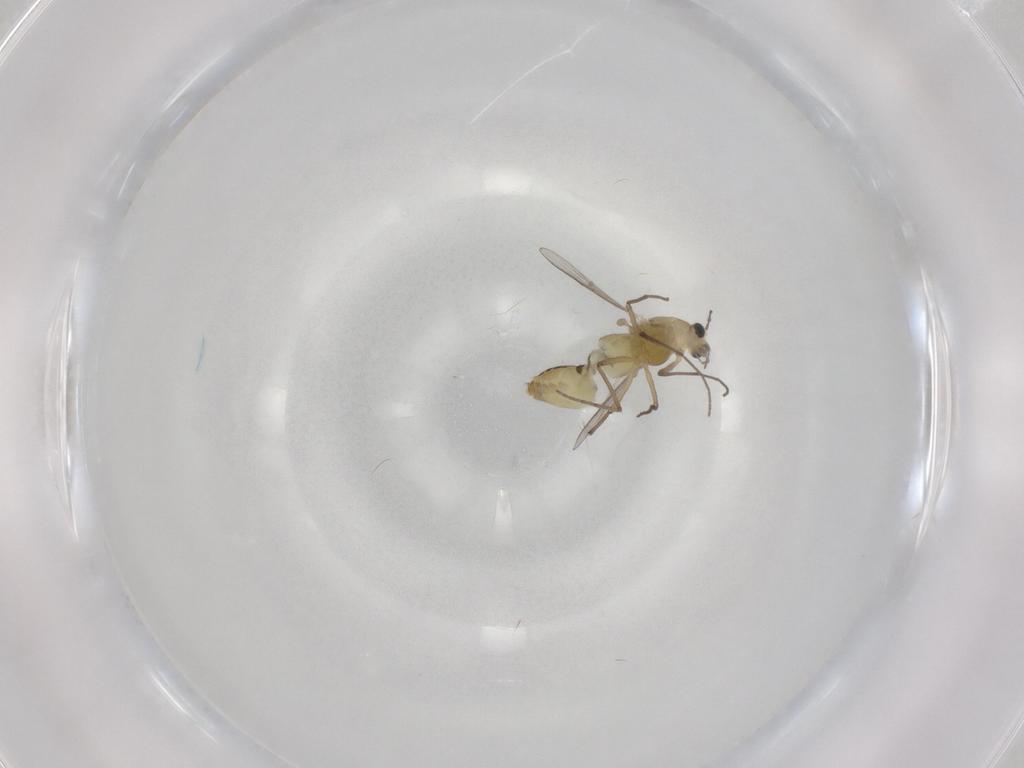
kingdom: Animalia
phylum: Arthropoda
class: Insecta
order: Diptera
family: Chironomidae
